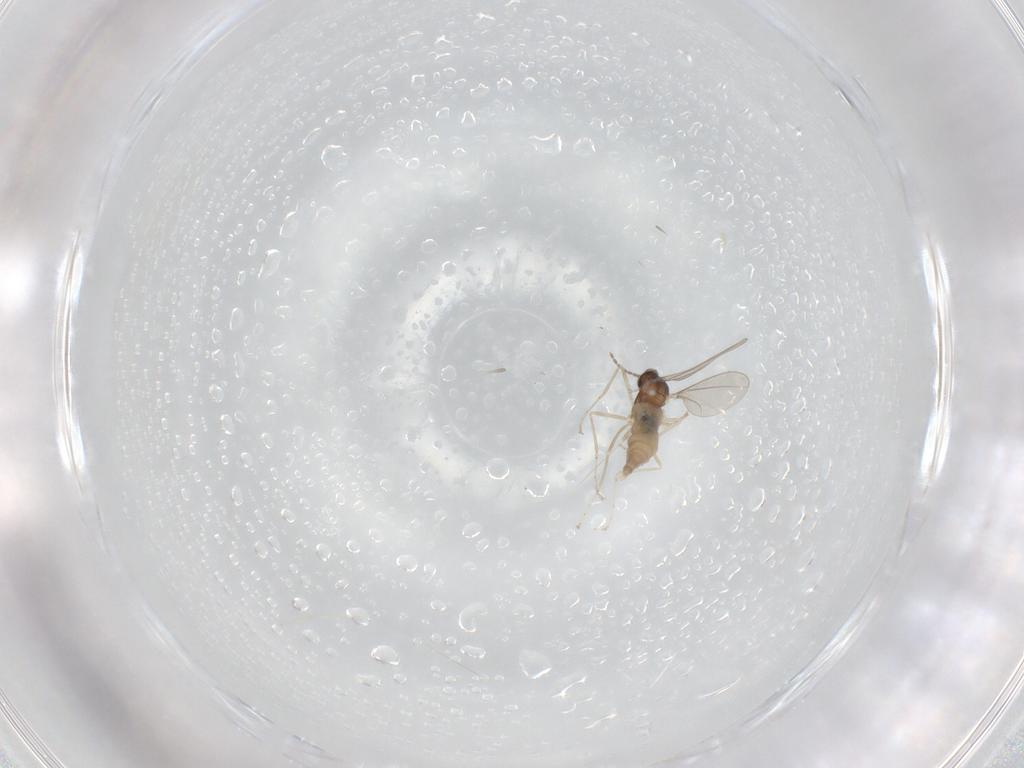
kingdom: Animalia
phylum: Arthropoda
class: Insecta
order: Diptera
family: Cecidomyiidae
